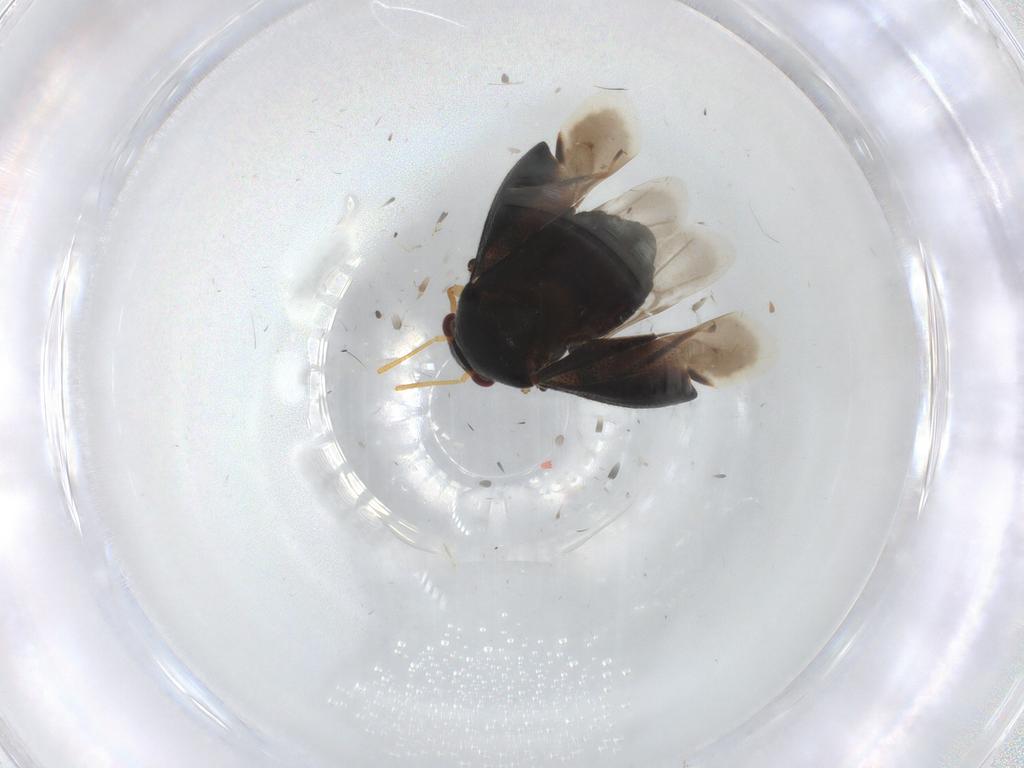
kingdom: Animalia
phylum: Arthropoda
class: Insecta
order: Hemiptera
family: Miridae
